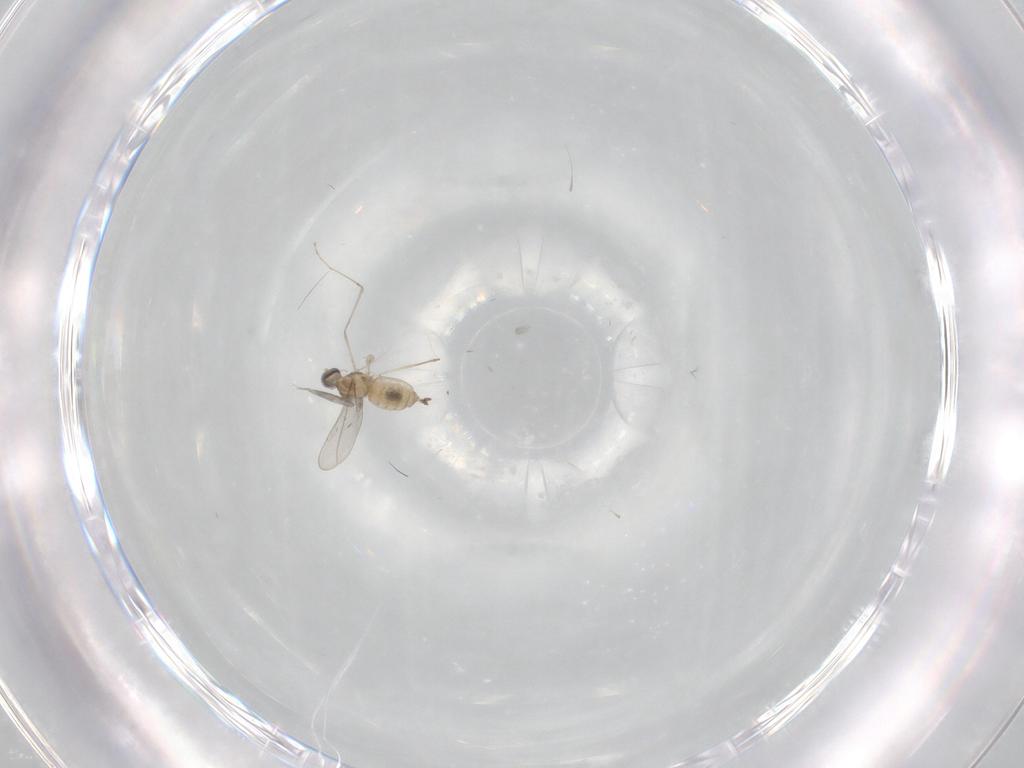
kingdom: Animalia
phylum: Arthropoda
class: Insecta
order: Diptera
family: Cecidomyiidae
